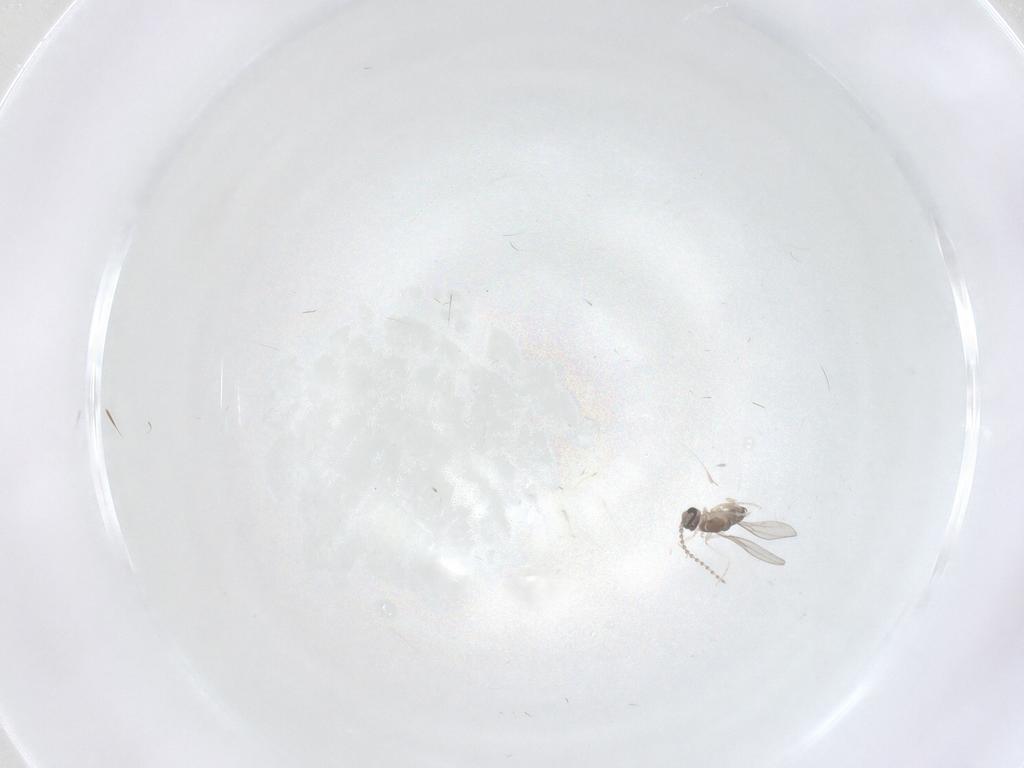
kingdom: Animalia
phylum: Arthropoda
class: Insecta
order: Diptera
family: Cecidomyiidae
